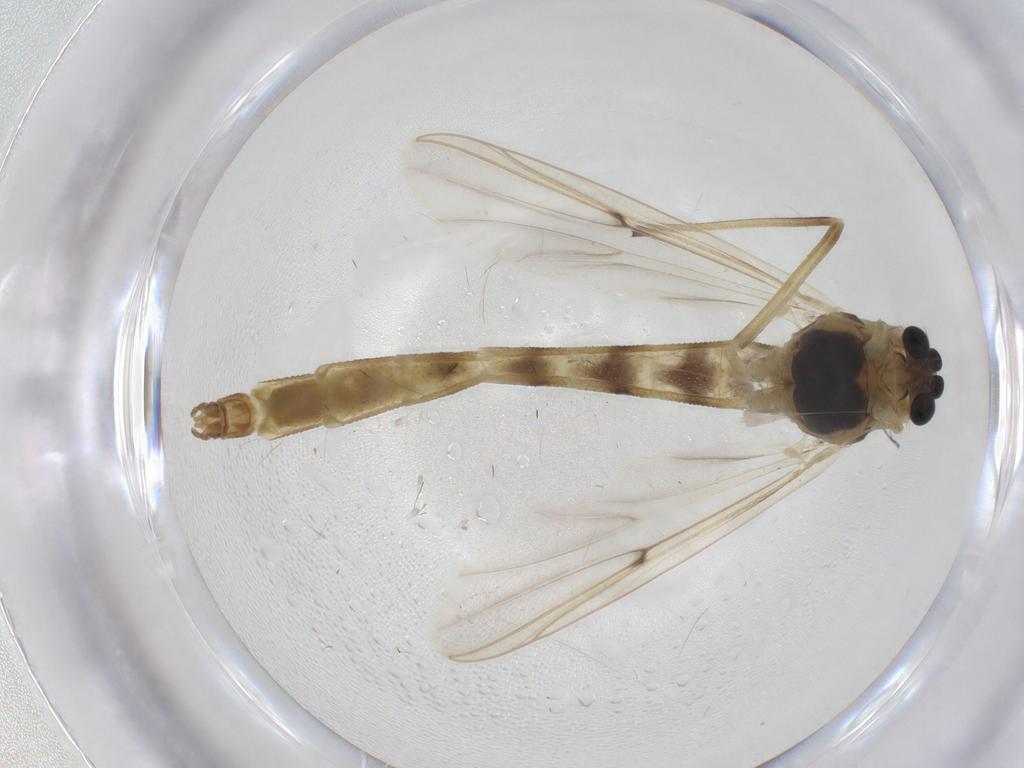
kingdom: Animalia
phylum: Arthropoda
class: Insecta
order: Diptera
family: Chironomidae
